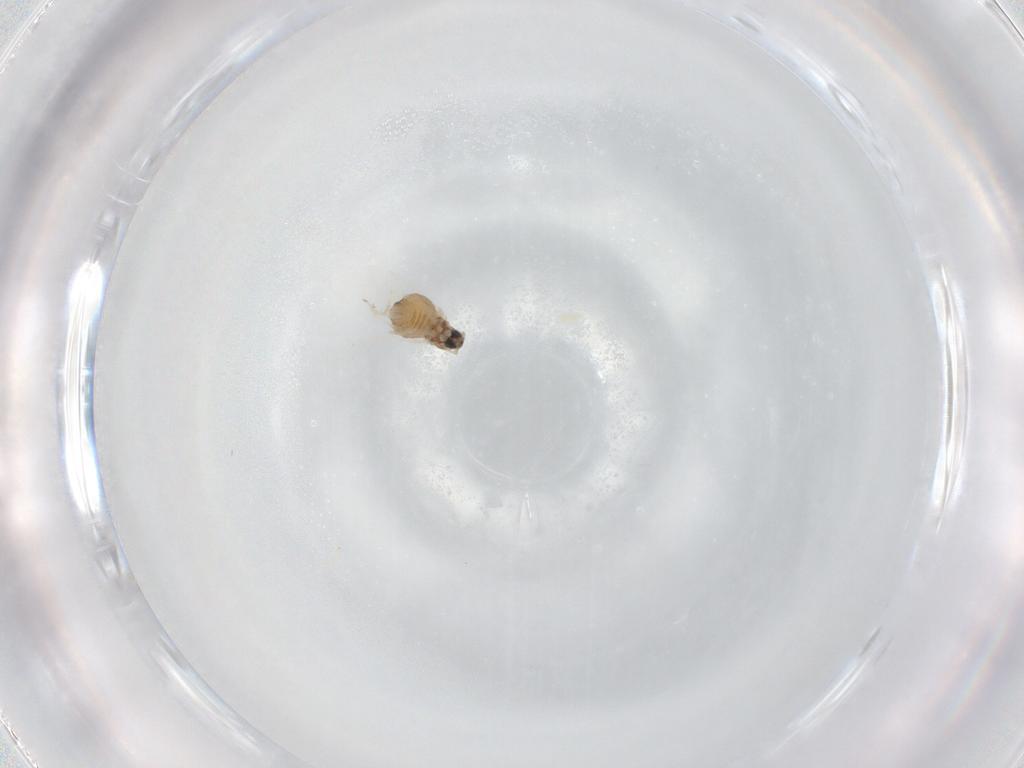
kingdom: Animalia
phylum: Arthropoda
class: Insecta
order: Diptera
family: Cecidomyiidae
